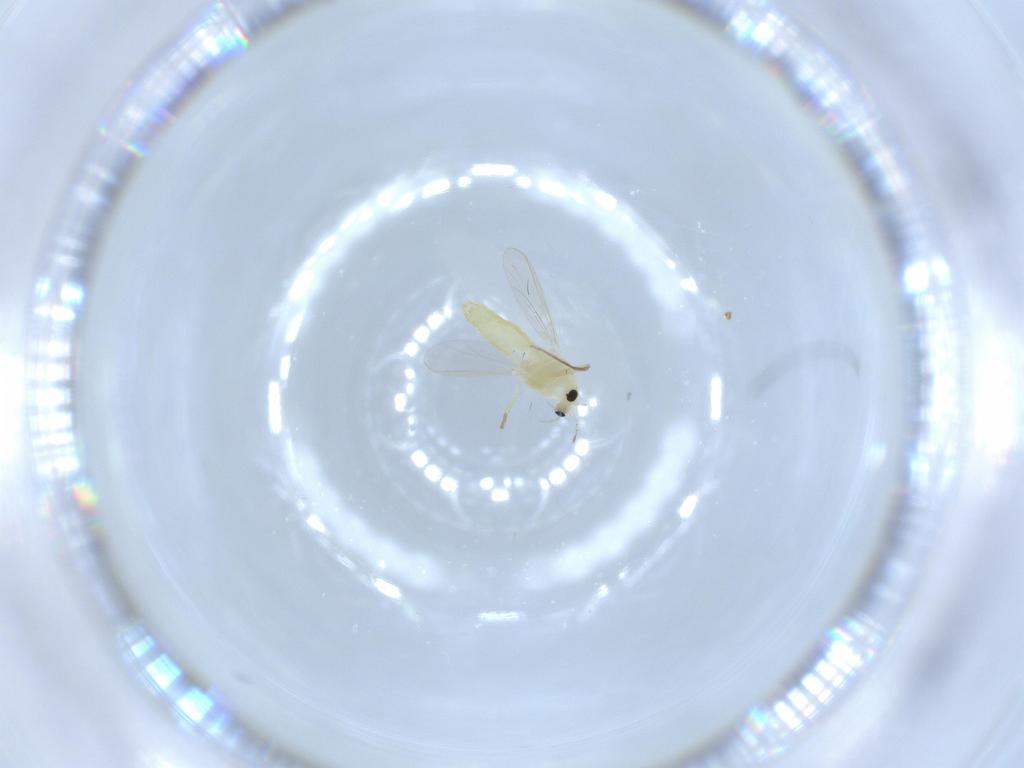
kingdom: Animalia
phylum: Arthropoda
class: Insecta
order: Diptera
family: Chironomidae
